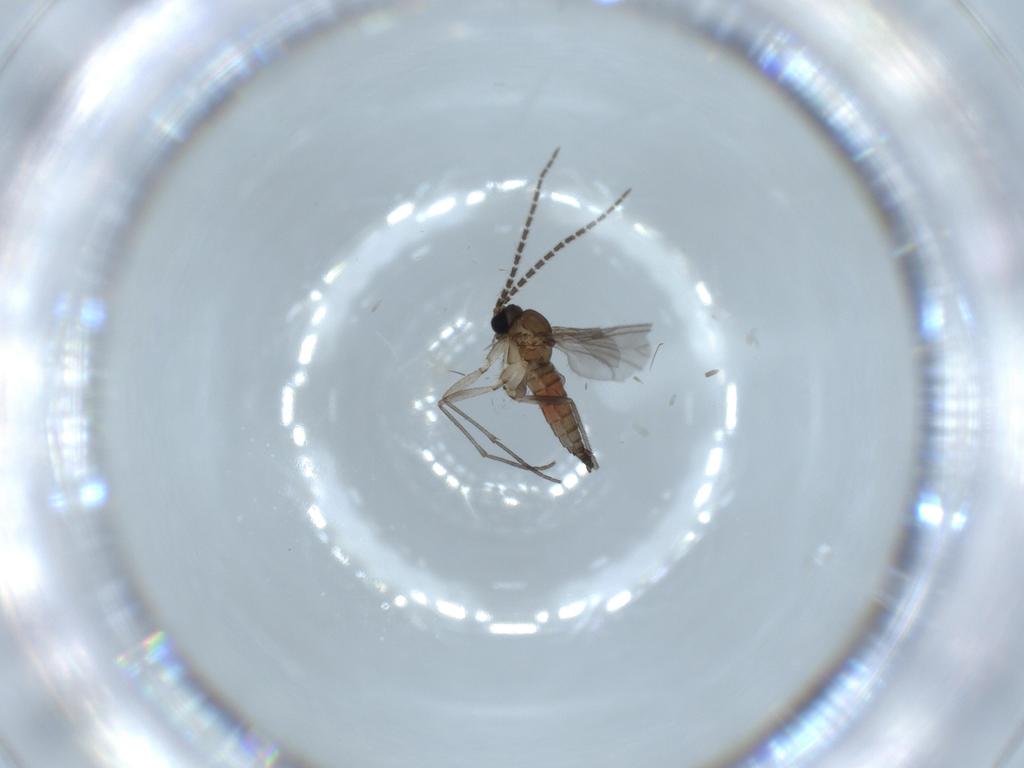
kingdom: Animalia
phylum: Arthropoda
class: Insecta
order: Diptera
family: Sciaridae
